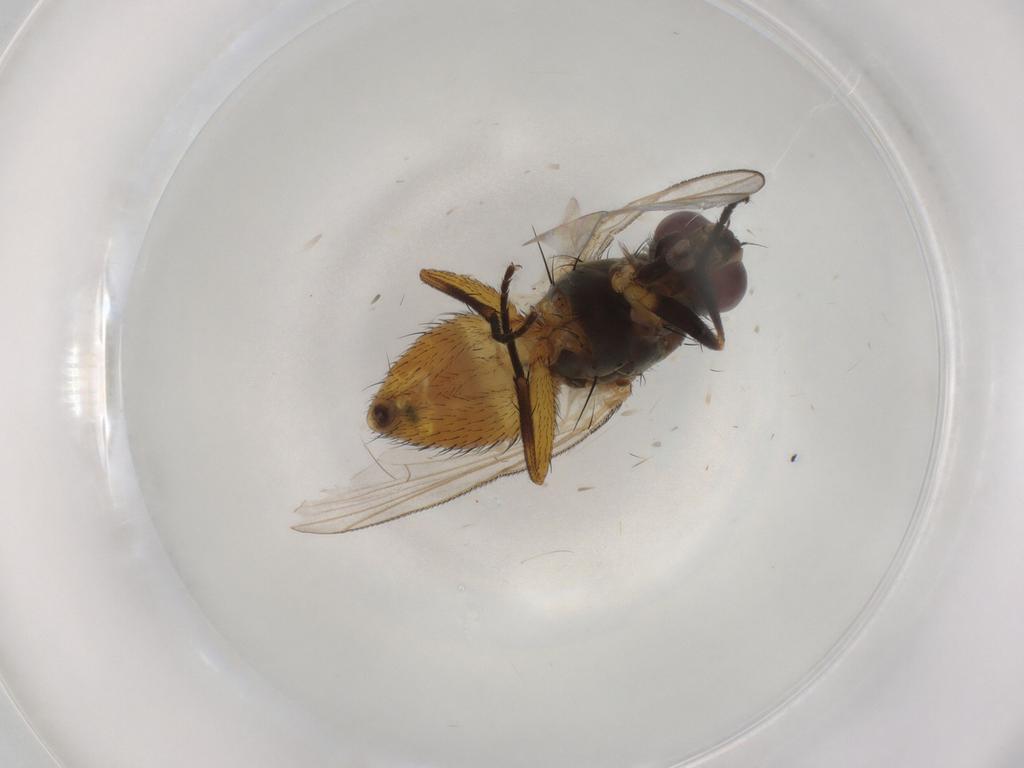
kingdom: Animalia
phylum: Arthropoda
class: Insecta
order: Diptera
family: Muscidae
